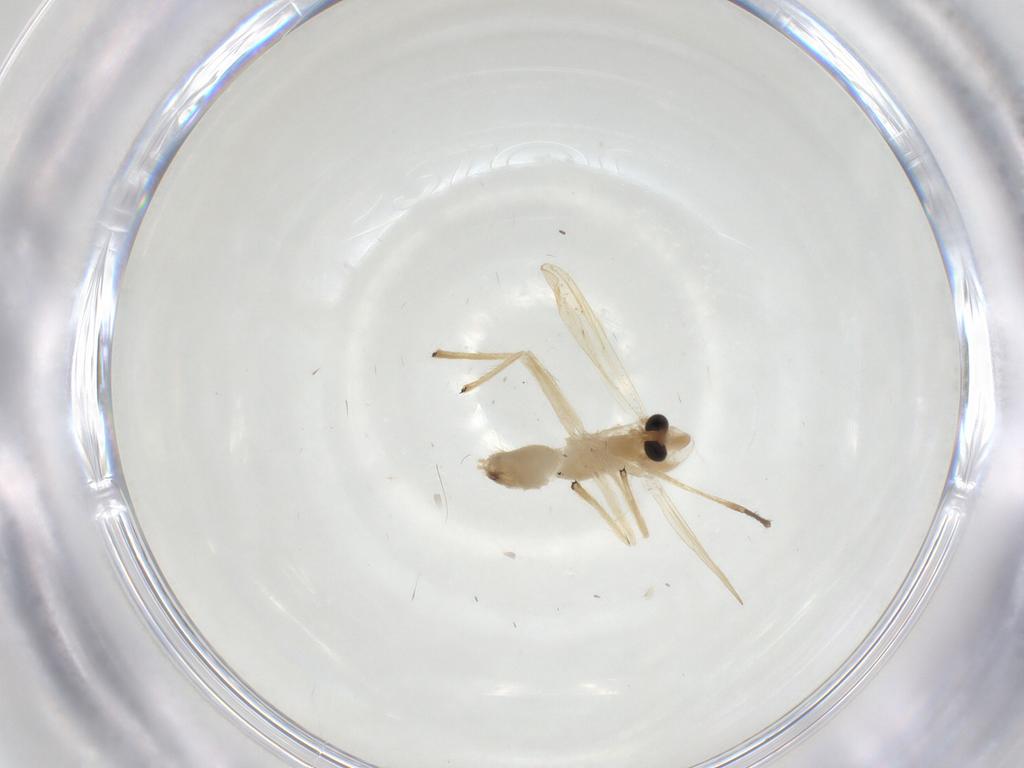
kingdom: Animalia
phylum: Arthropoda
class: Insecta
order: Diptera
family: Chironomidae
